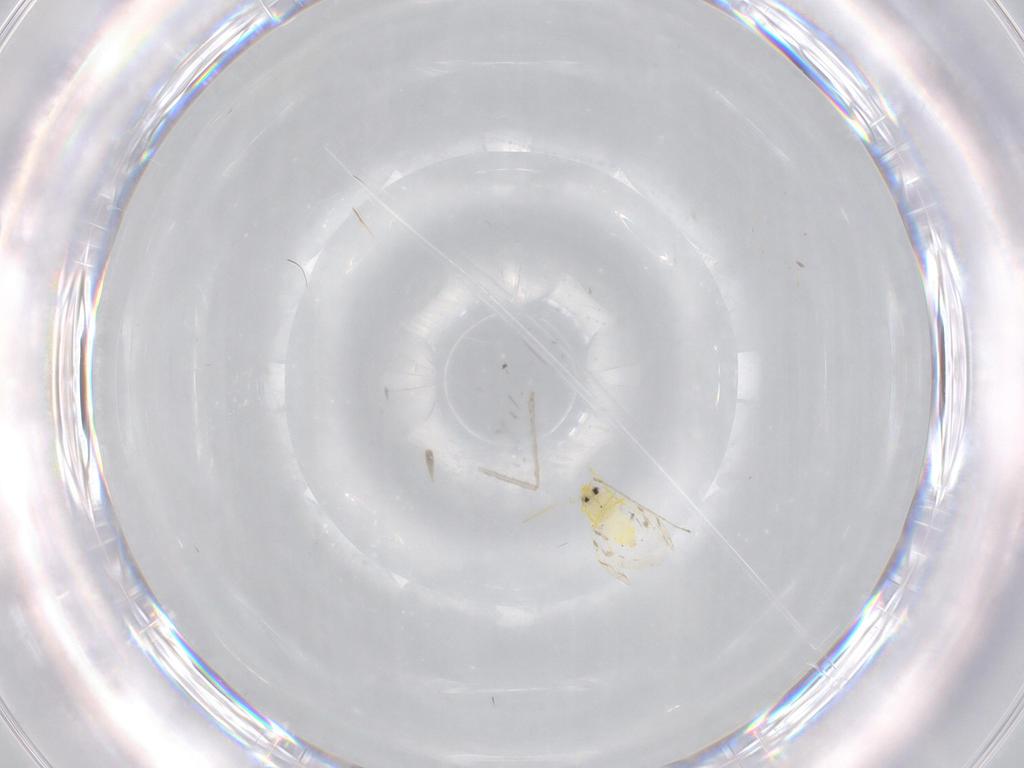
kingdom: Animalia
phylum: Arthropoda
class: Insecta
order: Hemiptera
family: Aleyrodidae
